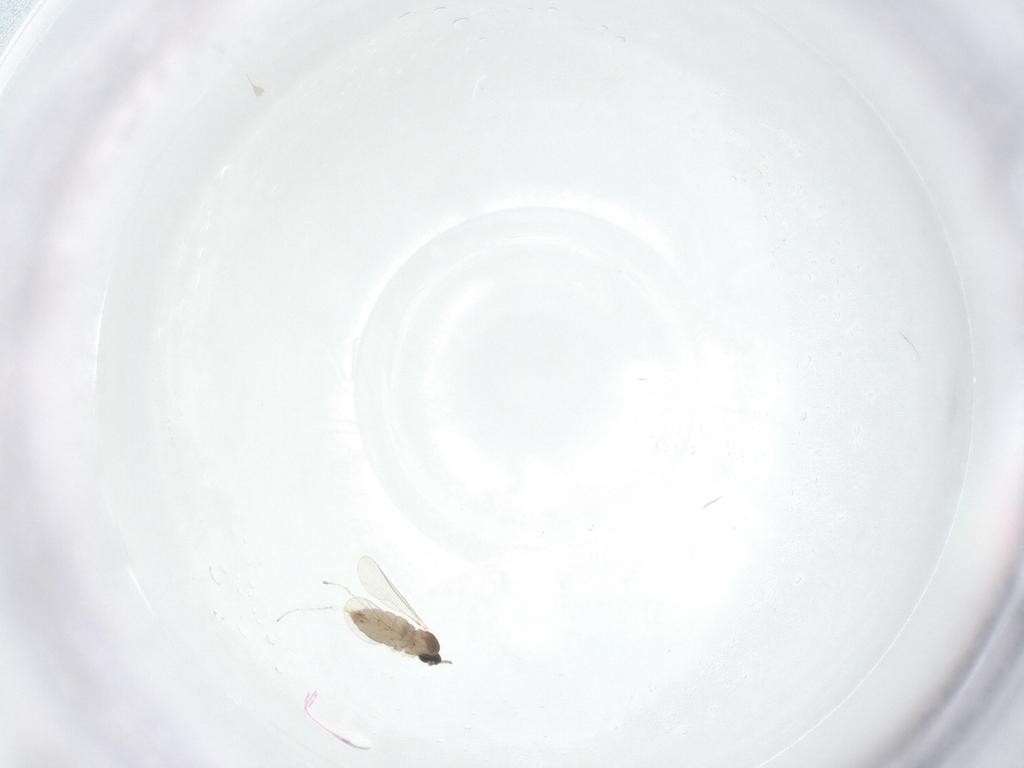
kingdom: Animalia
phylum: Arthropoda
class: Insecta
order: Diptera
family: Cecidomyiidae
